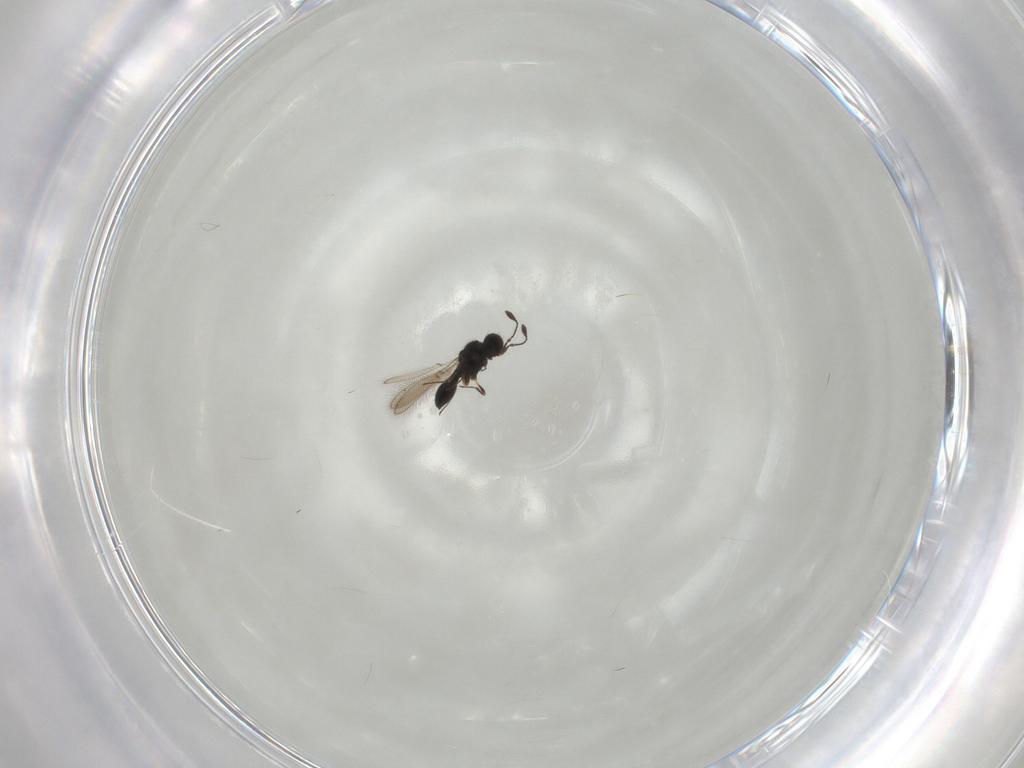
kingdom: Animalia
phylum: Arthropoda
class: Insecta
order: Hymenoptera
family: Scelionidae
